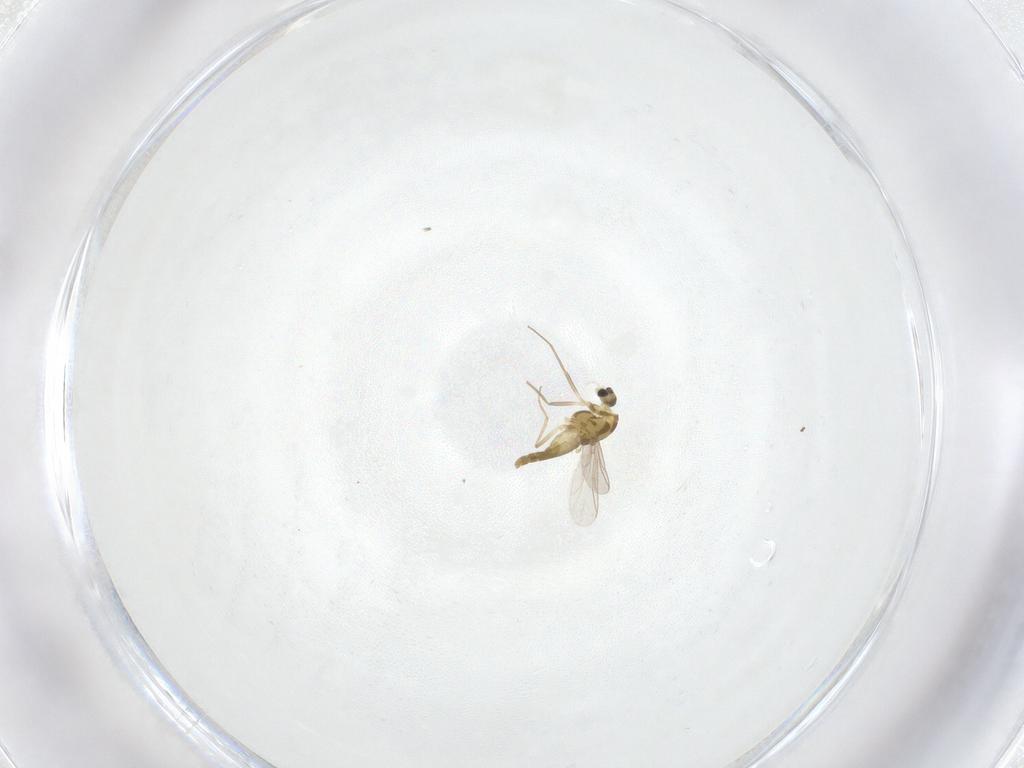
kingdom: Animalia
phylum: Arthropoda
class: Insecta
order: Diptera
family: Chironomidae
